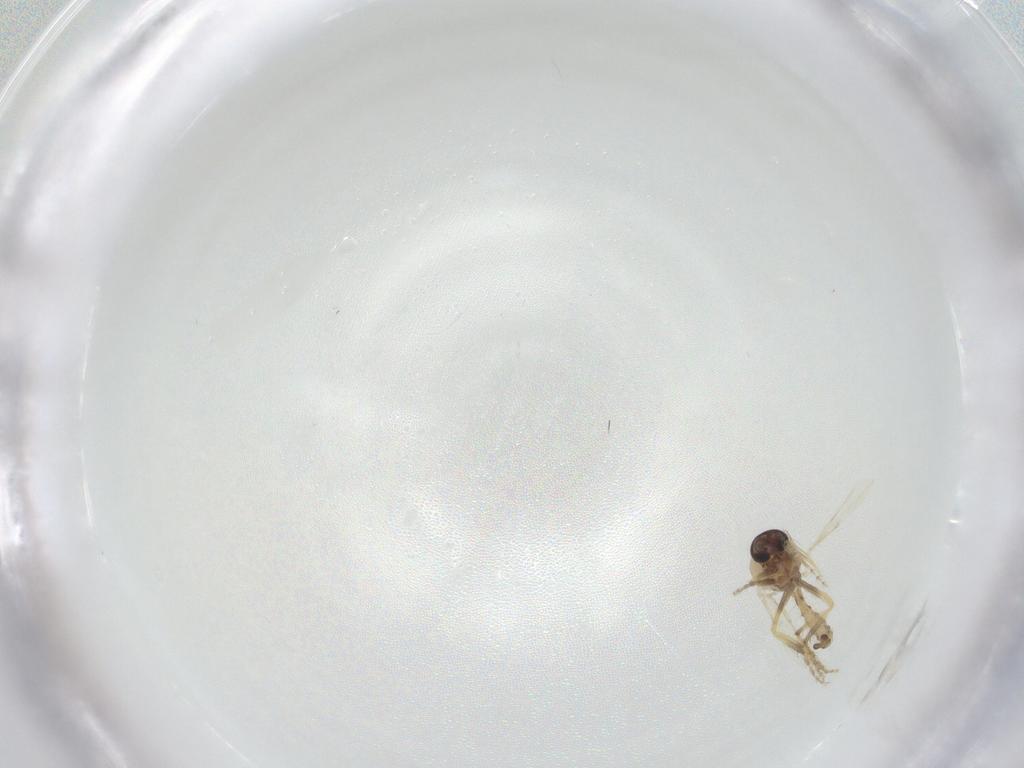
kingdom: Animalia
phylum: Arthropoda
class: Insecta
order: Diptera
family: Ceratopogonidae
